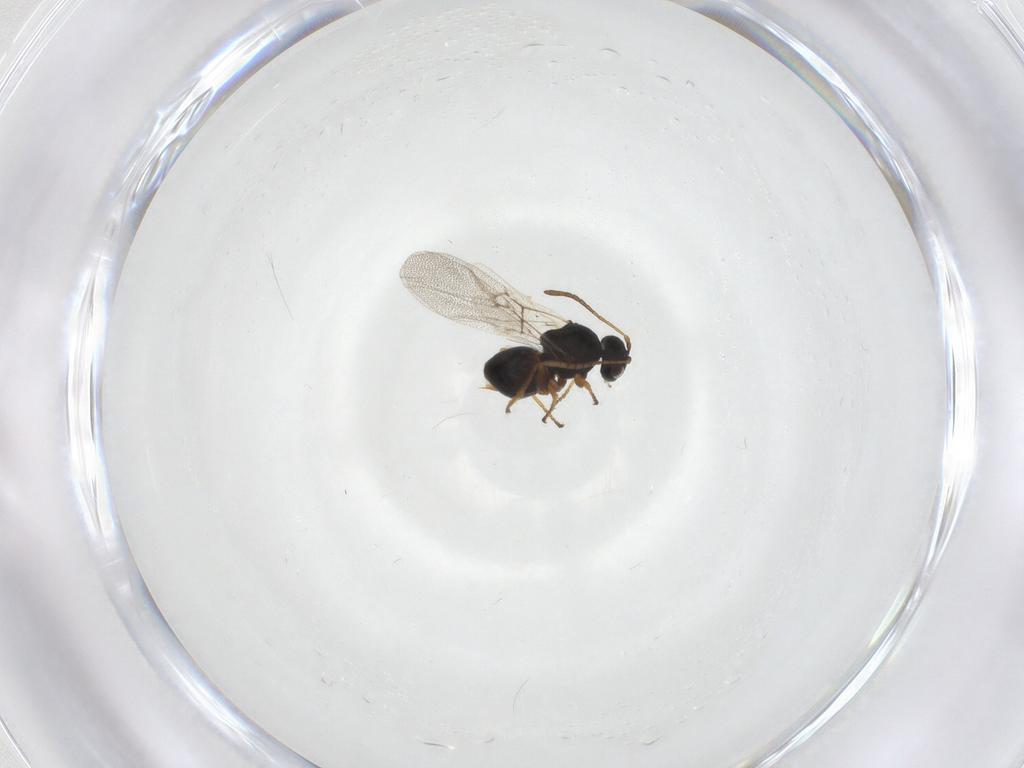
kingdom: Animalia
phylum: Arthropoda
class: Insecta
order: Hymenoptera
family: Cynipidae
